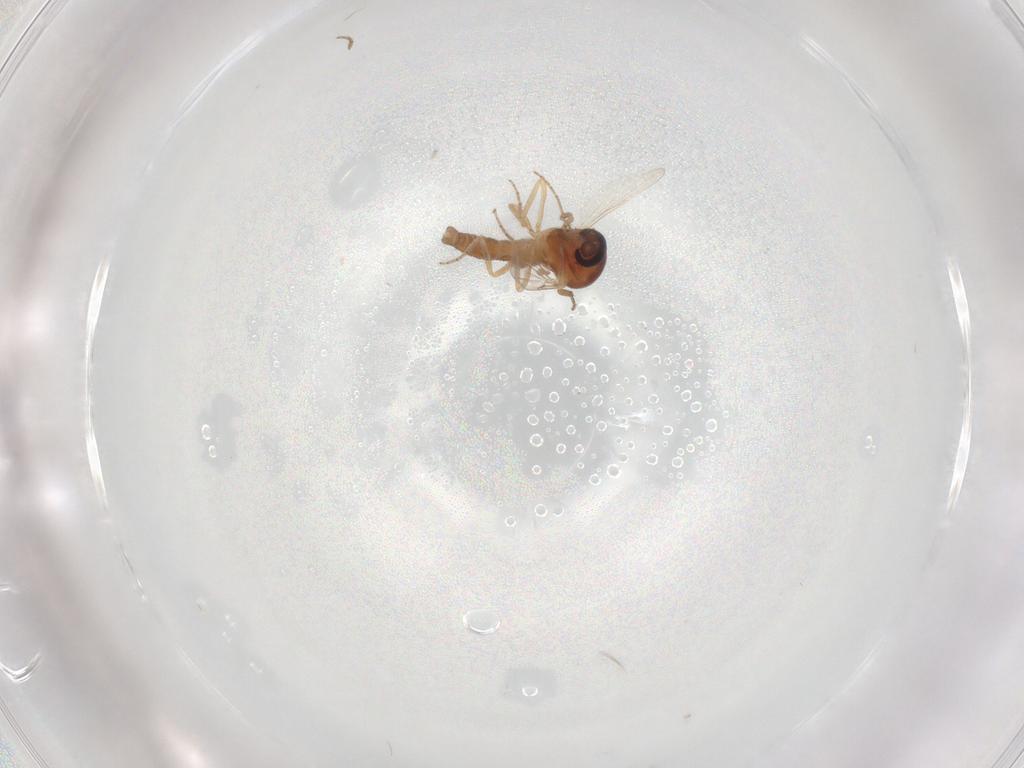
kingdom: Animalia
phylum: Arthropoda
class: Insecta
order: Diptera
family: Ceratopogonidae
